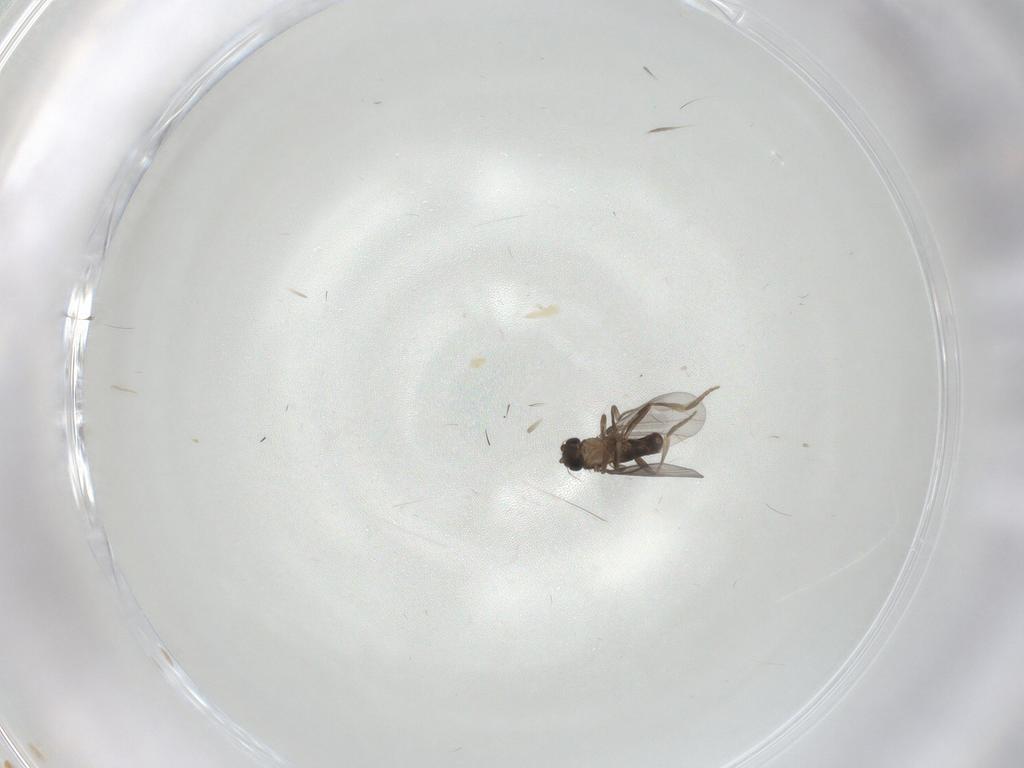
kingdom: Animalia
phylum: Arthropoda
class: Insecta
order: Diptera
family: Cecidomyiidae
